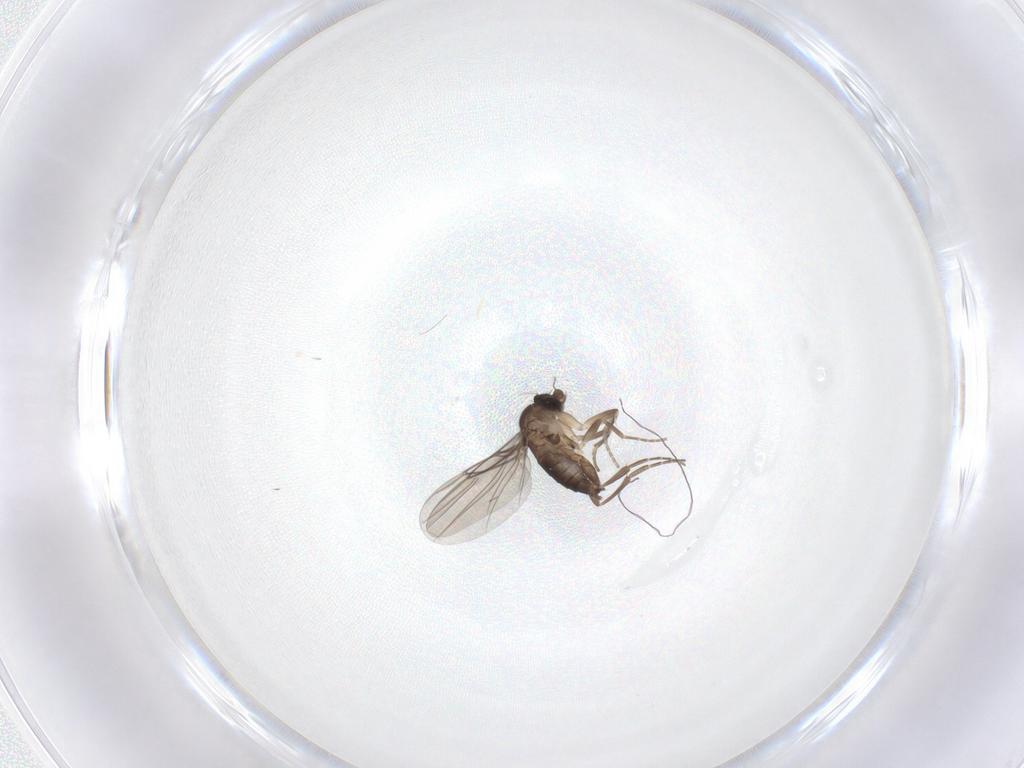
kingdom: Animalia
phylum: Arthropoda
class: Insecta
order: Diptera
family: Phoridae
